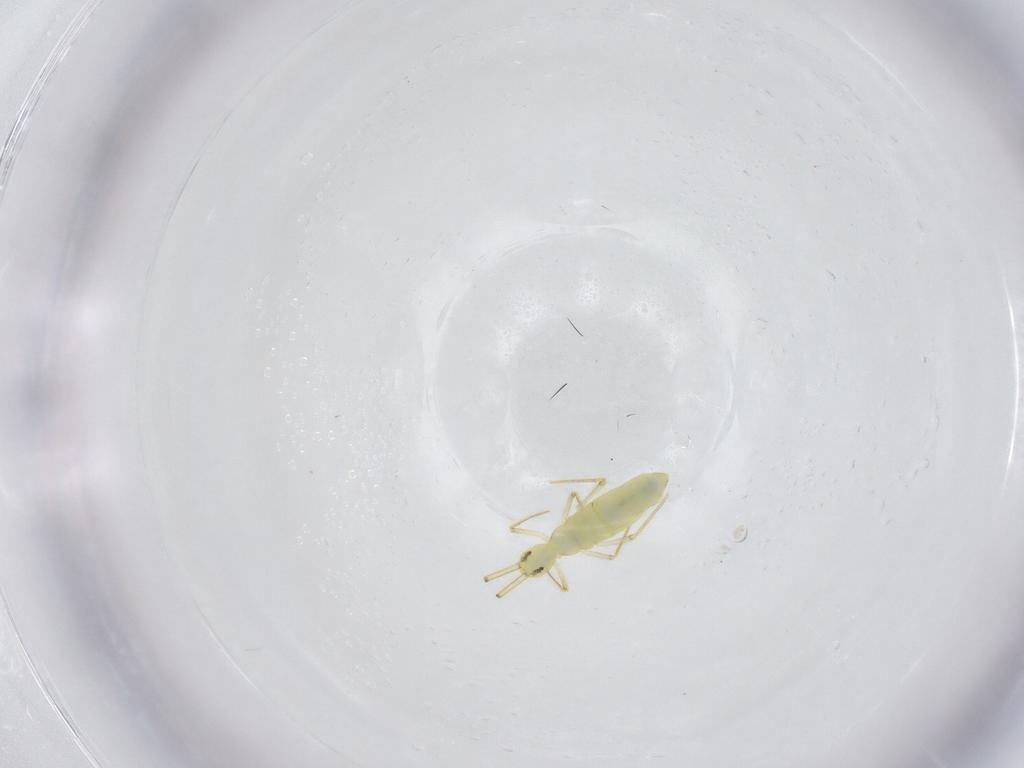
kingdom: Animalia
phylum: Arthropoda
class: Collembola
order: Entomobryomorpha
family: Entomobryidae
